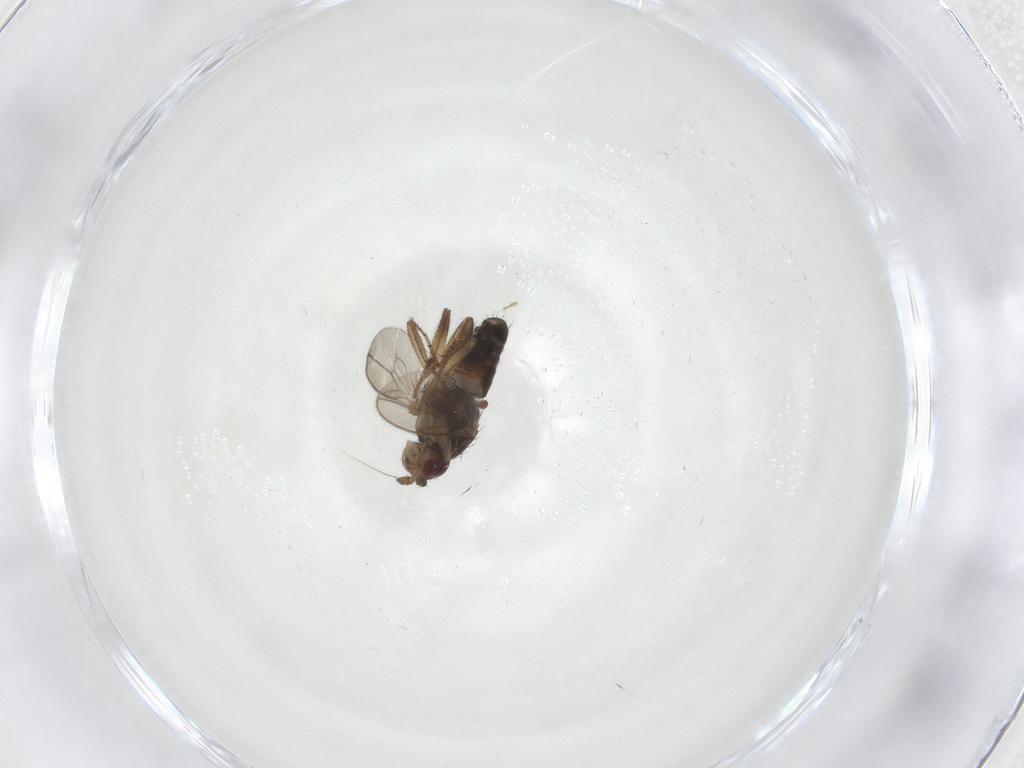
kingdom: Animalia
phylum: Arthropoda
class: Insecta
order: Diptera
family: Sphaeroceridae
